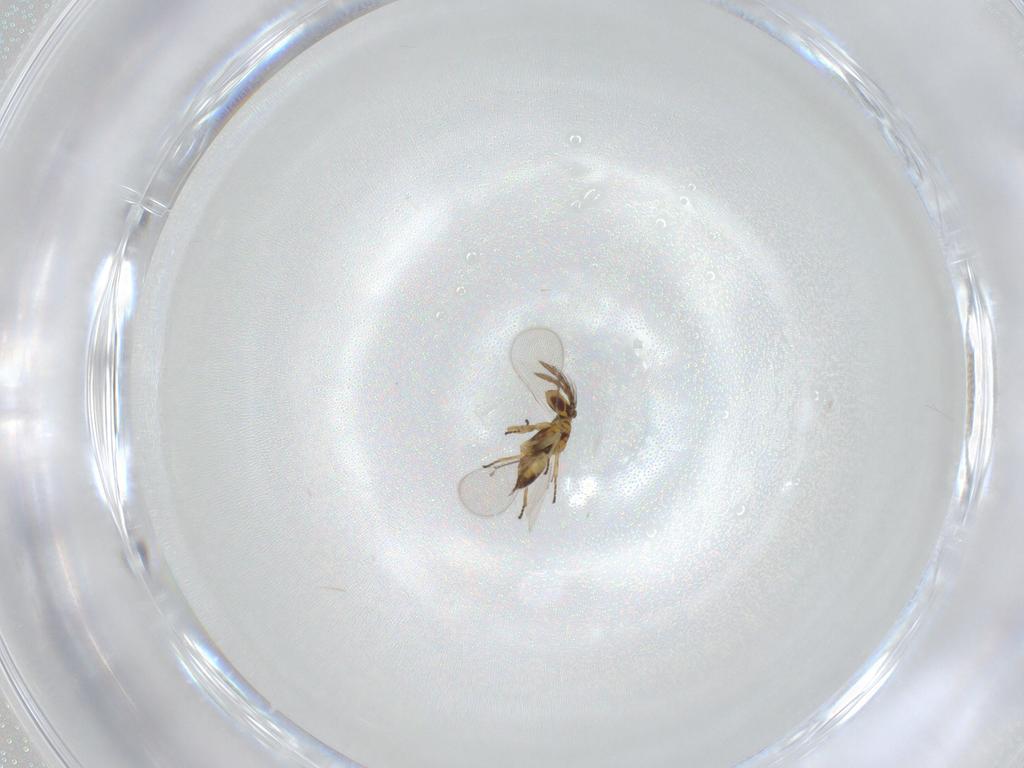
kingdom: Animalia
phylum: Arthropoda
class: Insecta
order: Hymenoptera
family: Eulophidae
